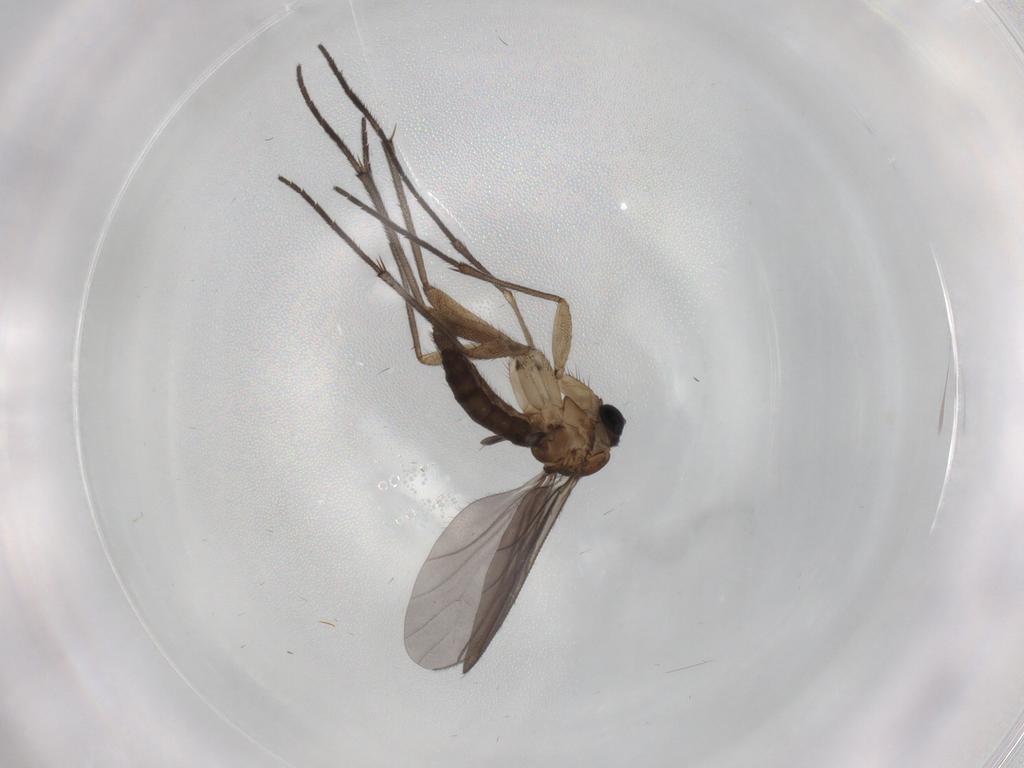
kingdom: Animalia
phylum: Arthropoda
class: Insecta
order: Diptera
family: Sciaridae
